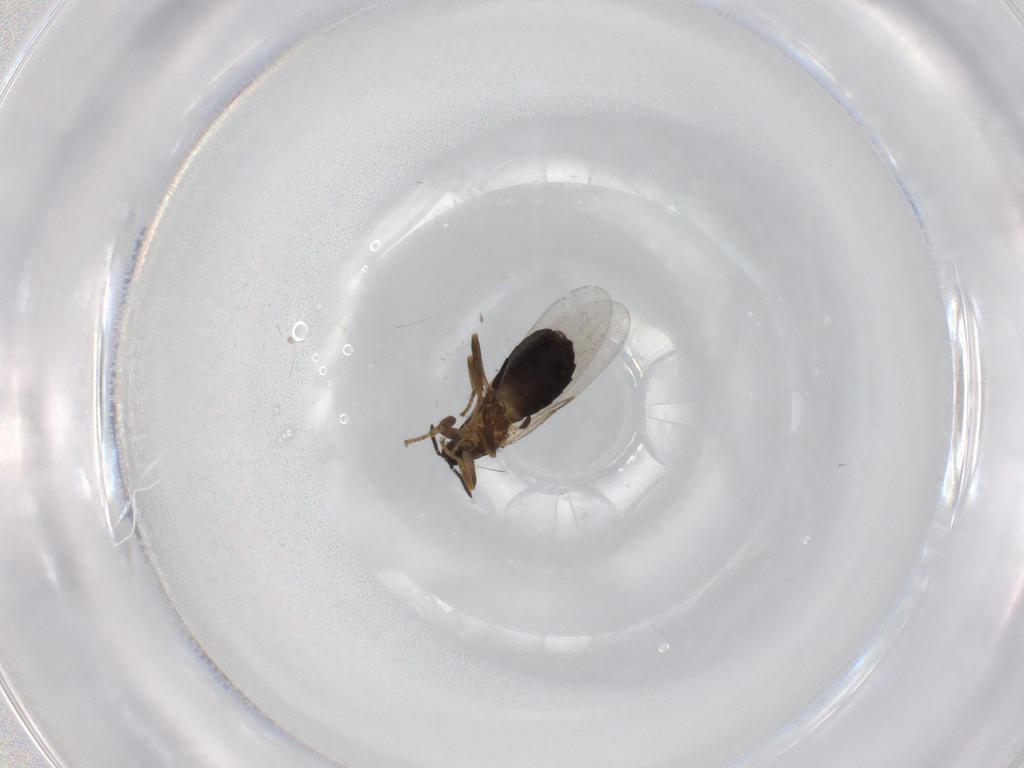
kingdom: Animalia
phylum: Arthropoda
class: Insecta
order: Diptera
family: Scatopsidae
